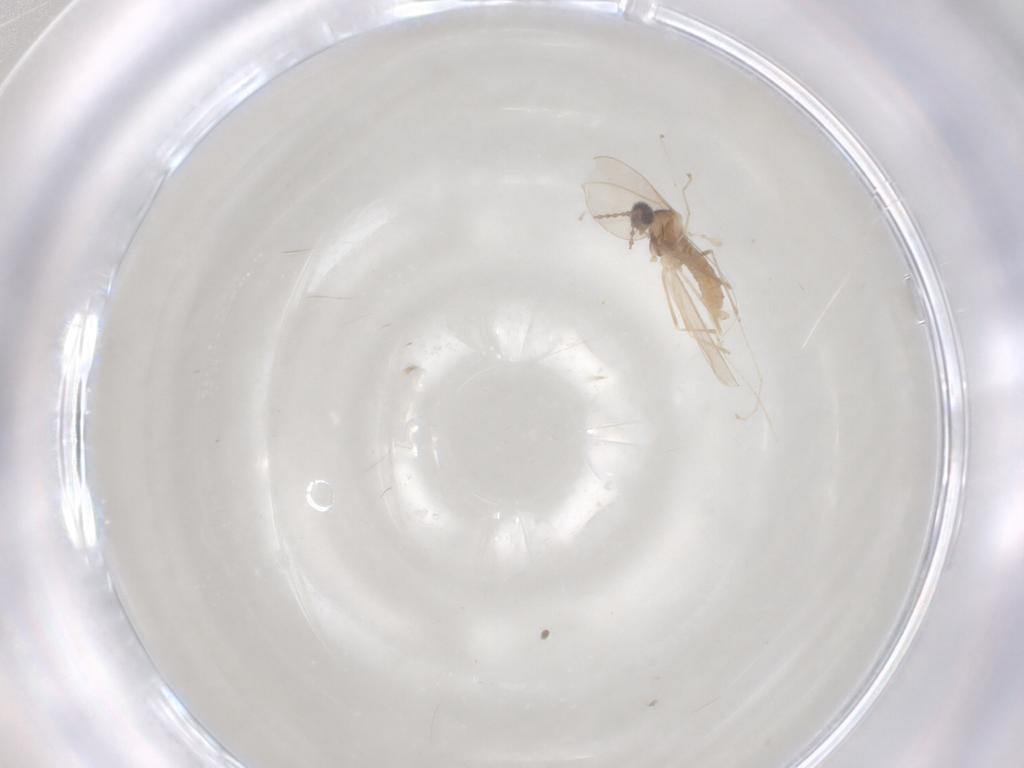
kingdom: Animalia
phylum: Arthropoda
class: Insecta
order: Diptera
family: Cecidomyiidae
